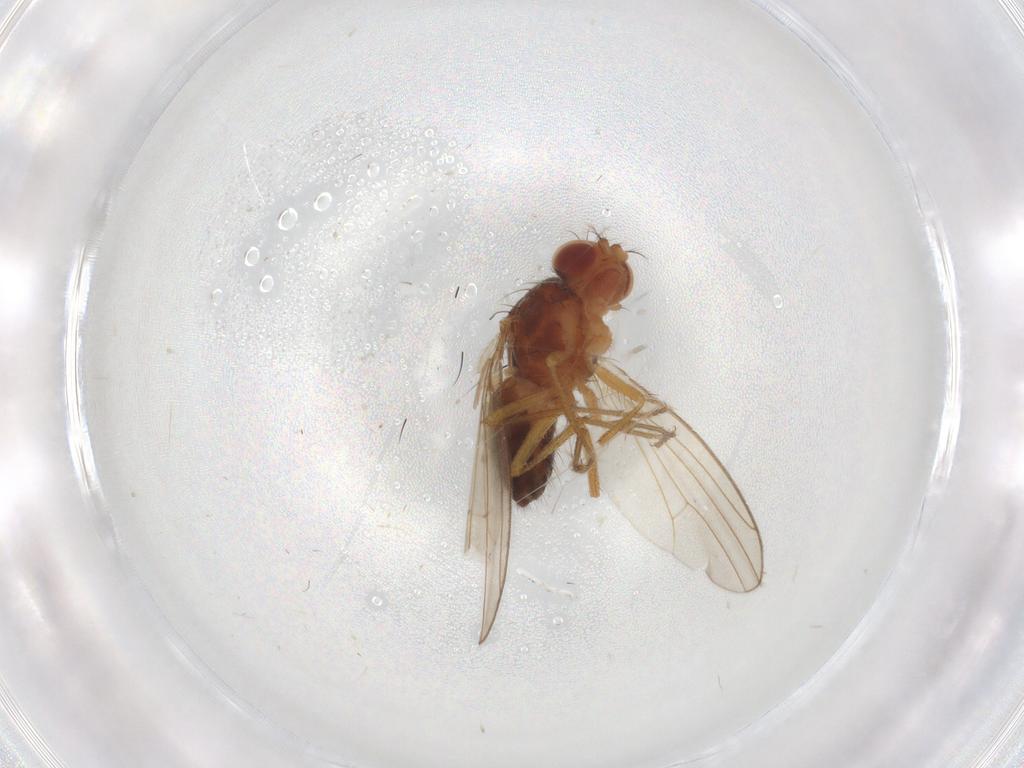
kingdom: Animalia
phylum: Arthropoda
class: Insecta
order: Diptera
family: Drosophilidae
